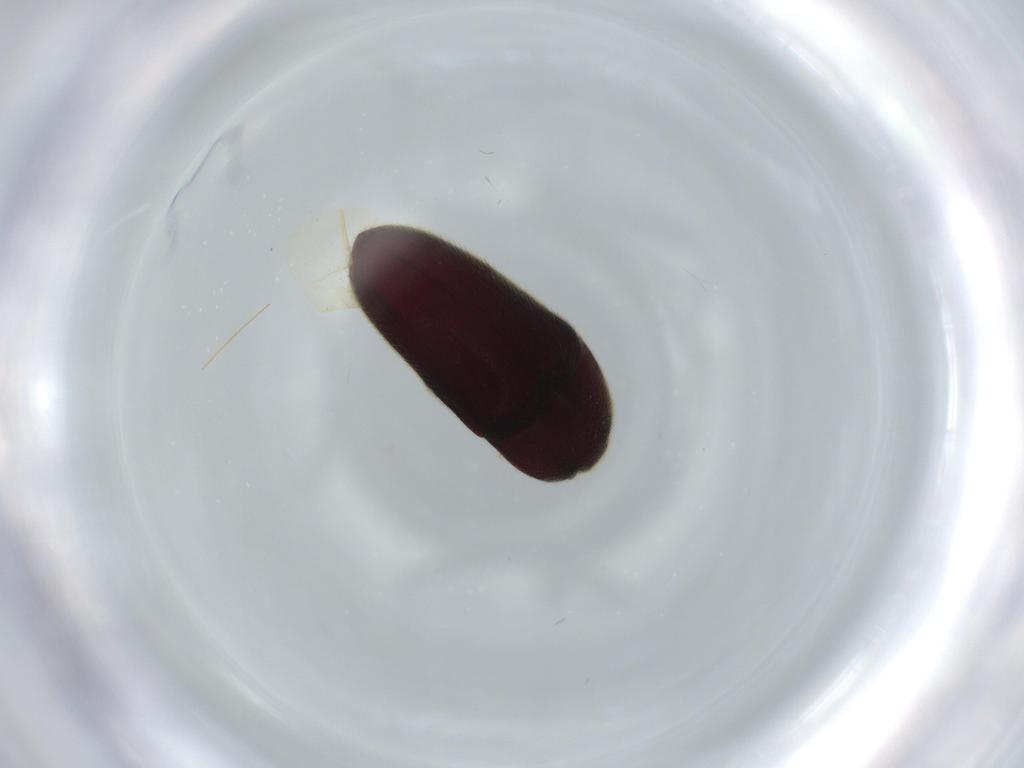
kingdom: Animalia
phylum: Arthropoda
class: Insecta
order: Coleoptera
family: Throscidae
